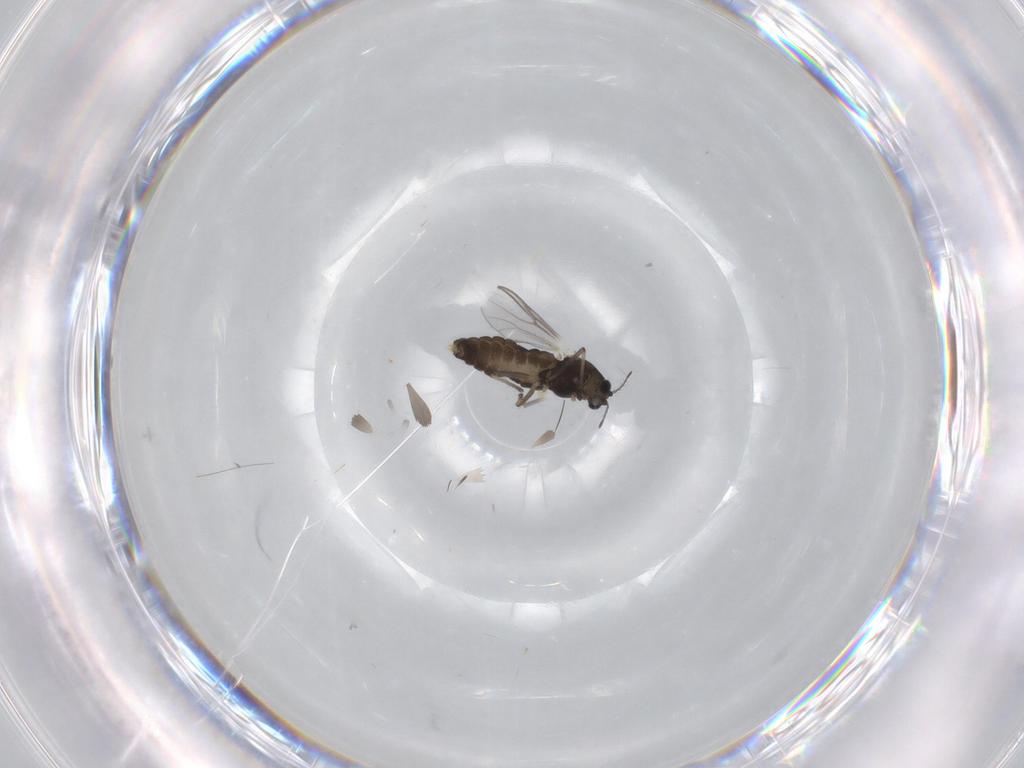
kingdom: Animalia
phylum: Arthropoda
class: Insecta
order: Diptera
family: Chironomidae
